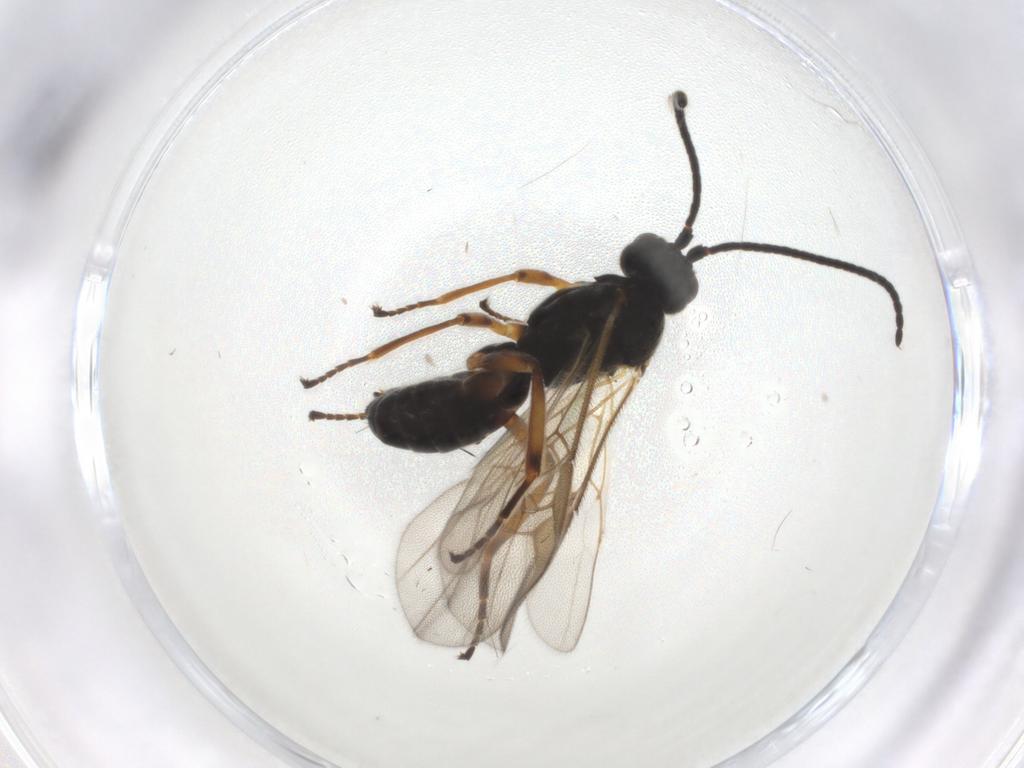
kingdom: Animalia
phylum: Arthropoda
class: Insecta
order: Hymenoptera
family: Braconidae
